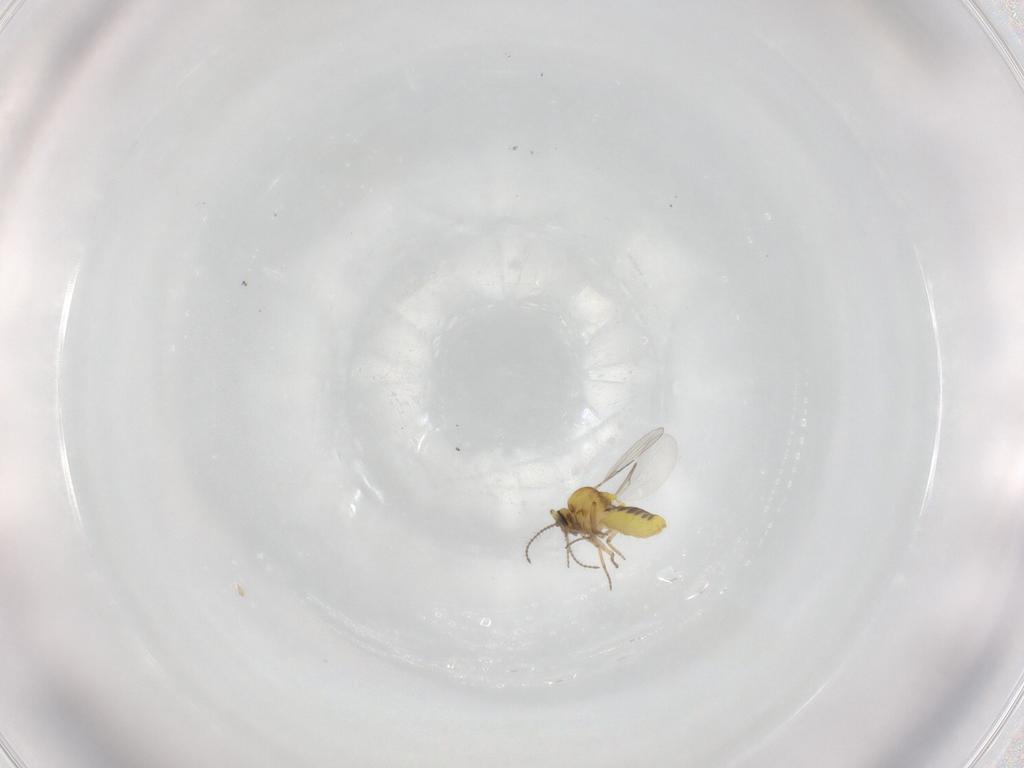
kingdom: Animalia
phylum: Arthropoda
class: Insecta
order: Diptera
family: Ceratopogonidae
